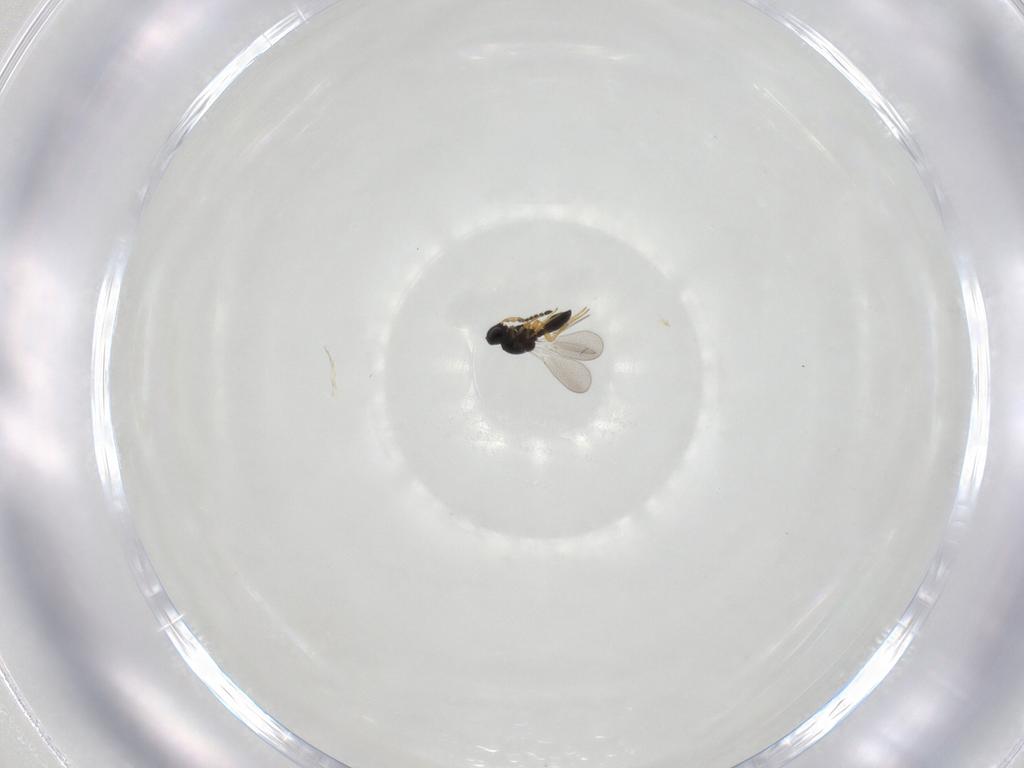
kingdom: Animalia
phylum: Arthropoda
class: Insecta
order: Hymenoptera
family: Platygastridae
